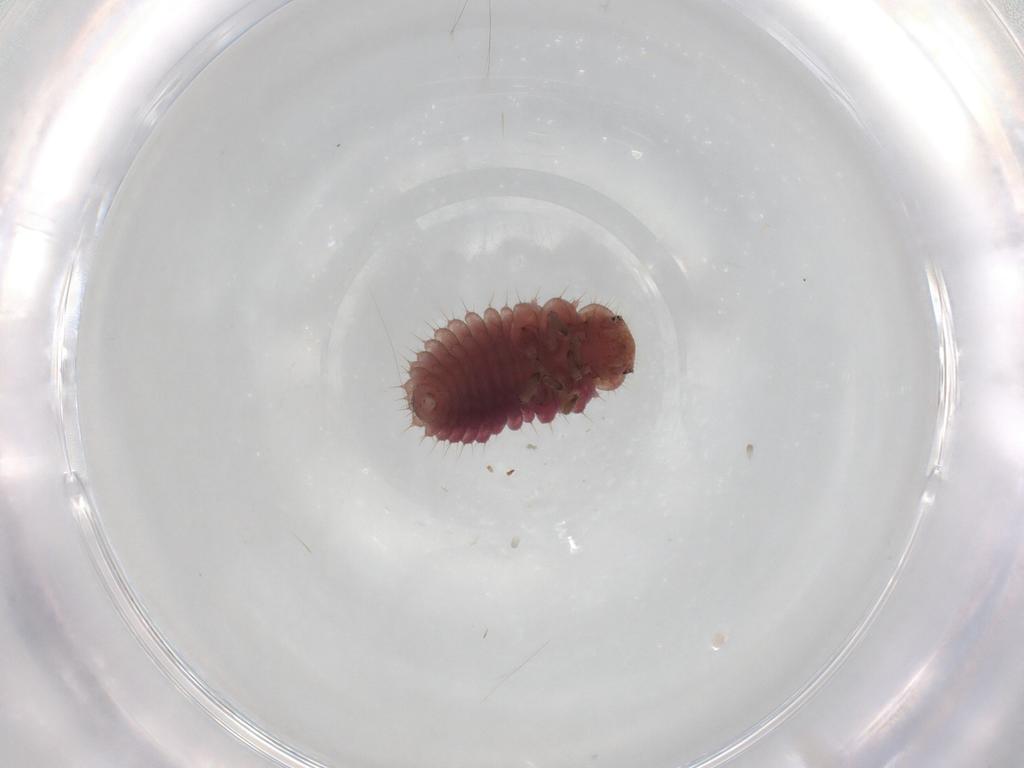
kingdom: Animalia
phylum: Arthropoda
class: Insecta
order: Coleoptera
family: Coccinellidae
